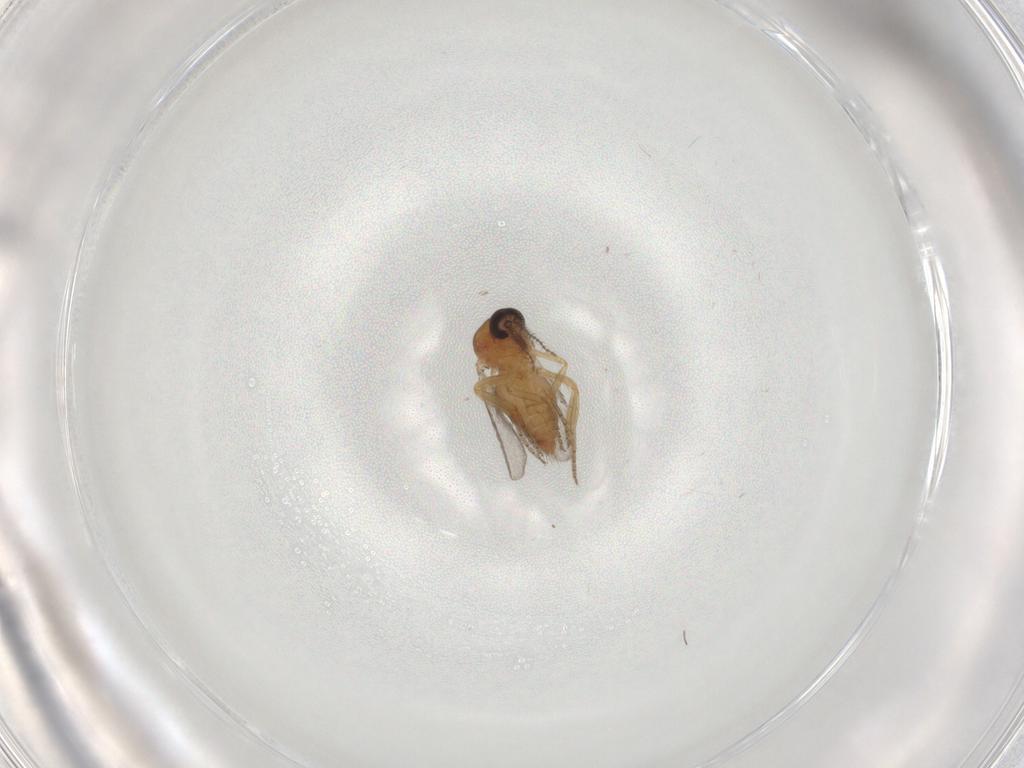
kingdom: Animalia
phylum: Arthropoda
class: Insecta
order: Diptera
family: Ceratopogonidae
